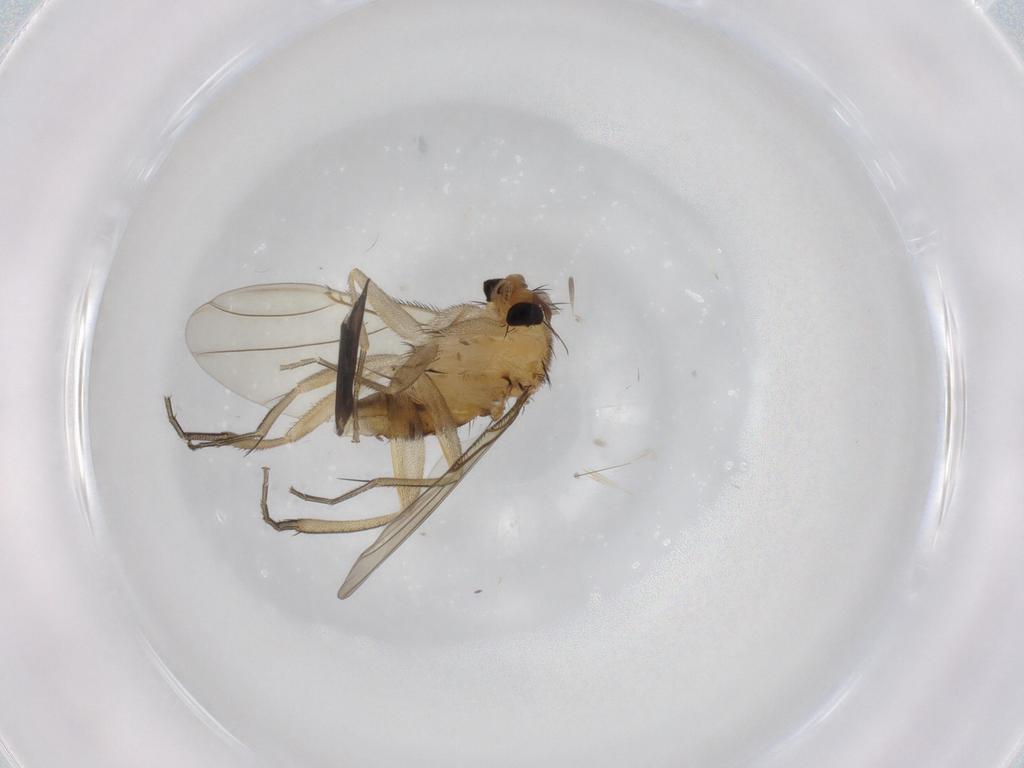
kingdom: Animalia
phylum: Arthropoda
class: Insecta
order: Diptera
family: Phoridae
